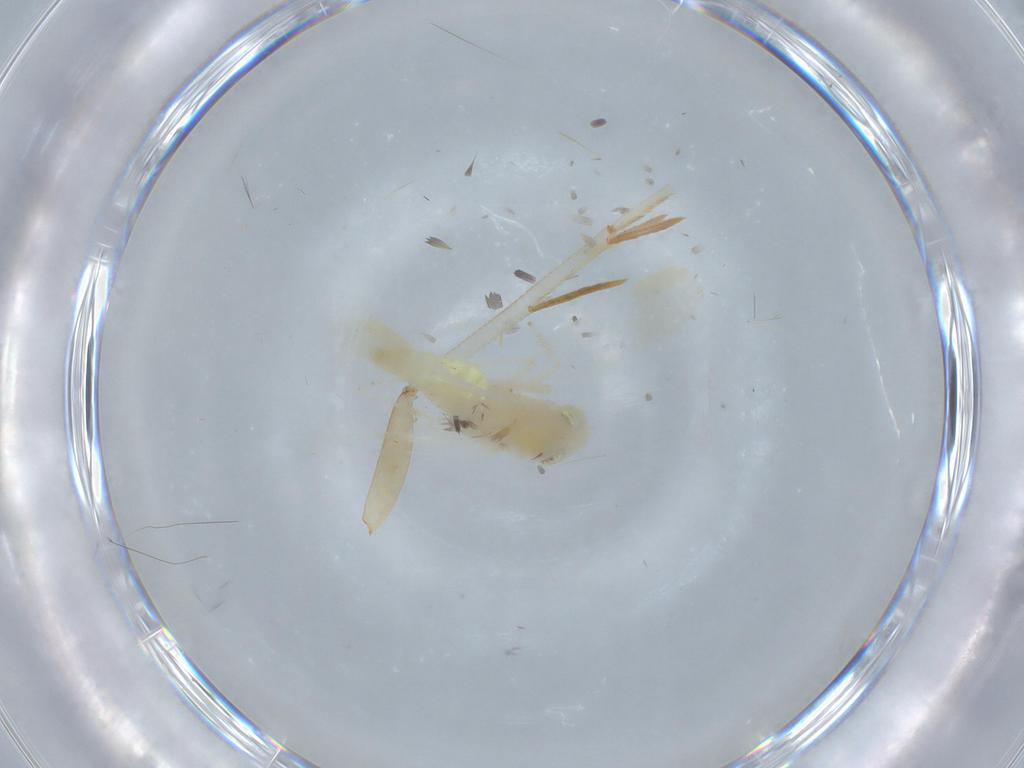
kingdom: Animalia
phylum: Arthropoda
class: Insecta
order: Hemiptera
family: Cicadellidae
